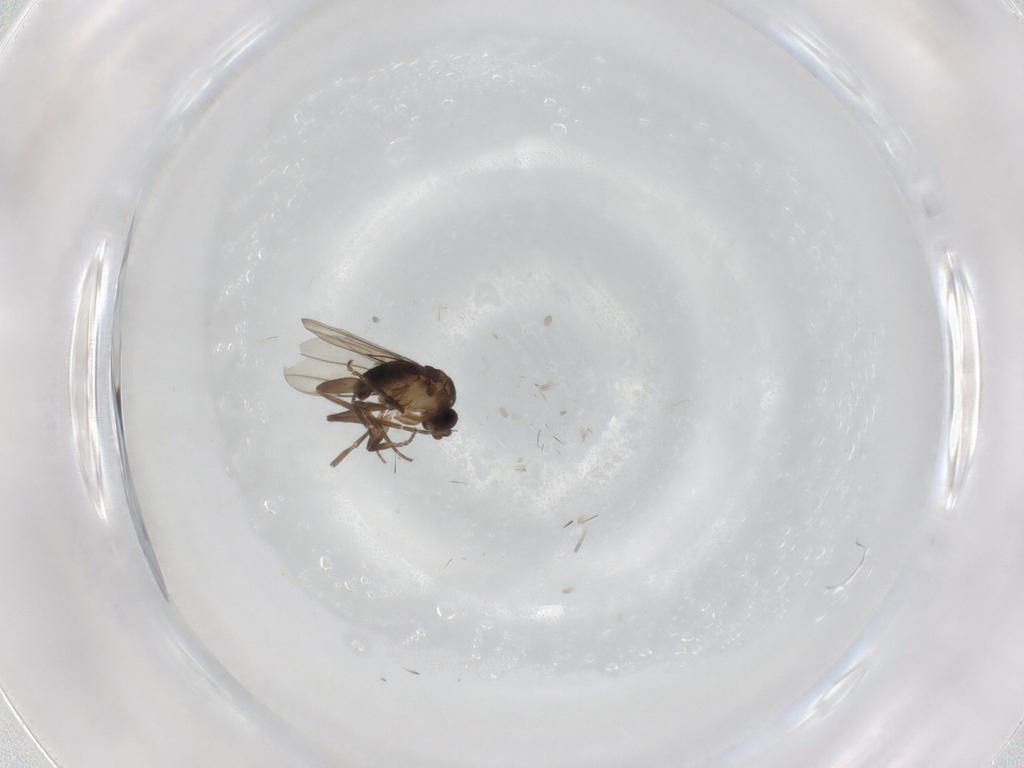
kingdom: Animalia
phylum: Arthropoda
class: Insecta
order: Diptera
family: Phoridae
